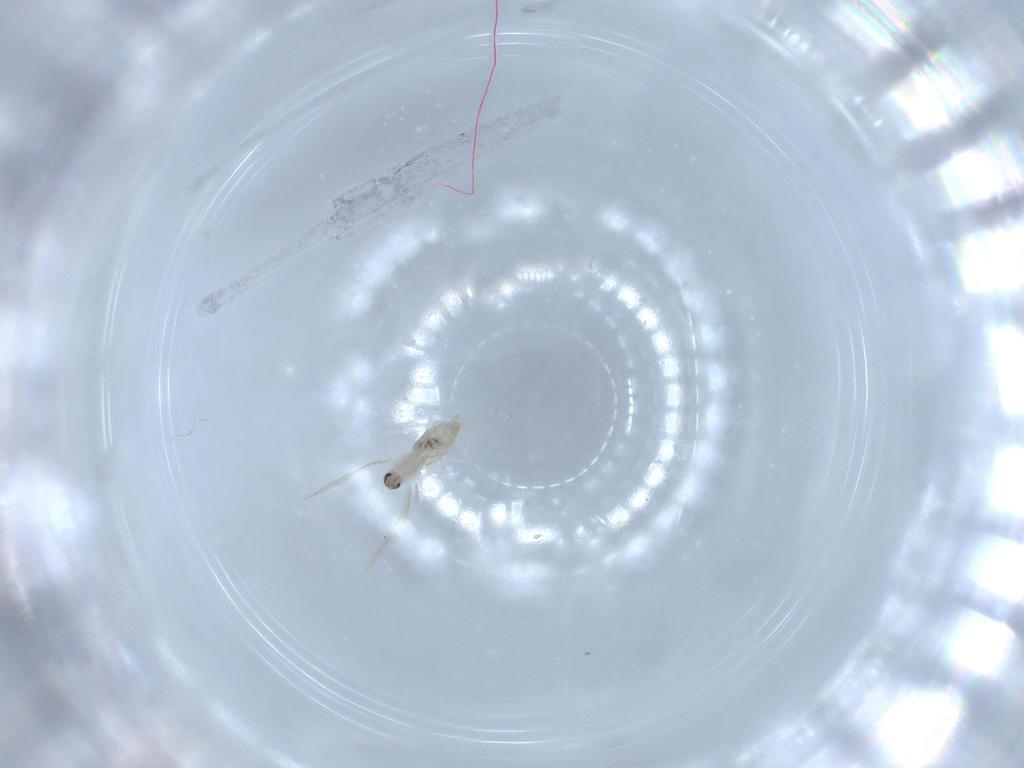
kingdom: Animalia
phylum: Arthropoda
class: Insecta
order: Diptera
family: Cecidomyiidae
